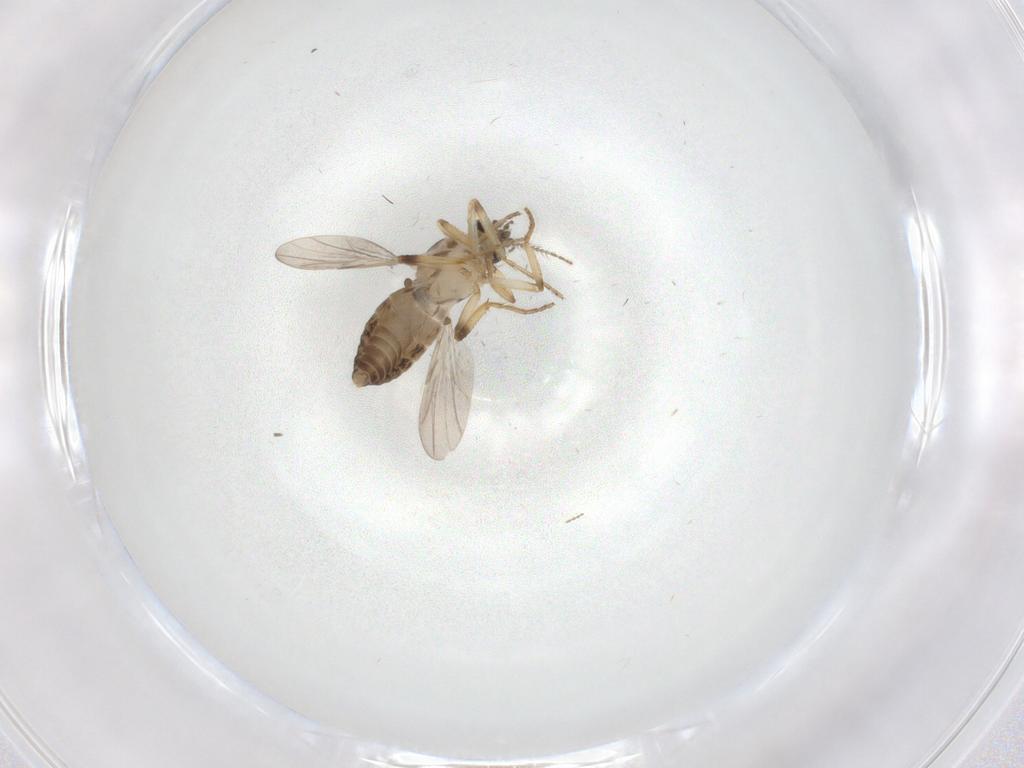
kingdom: Animalia
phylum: Arthropoda
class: Insecta
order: Diptera
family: Ceratopogonidae
